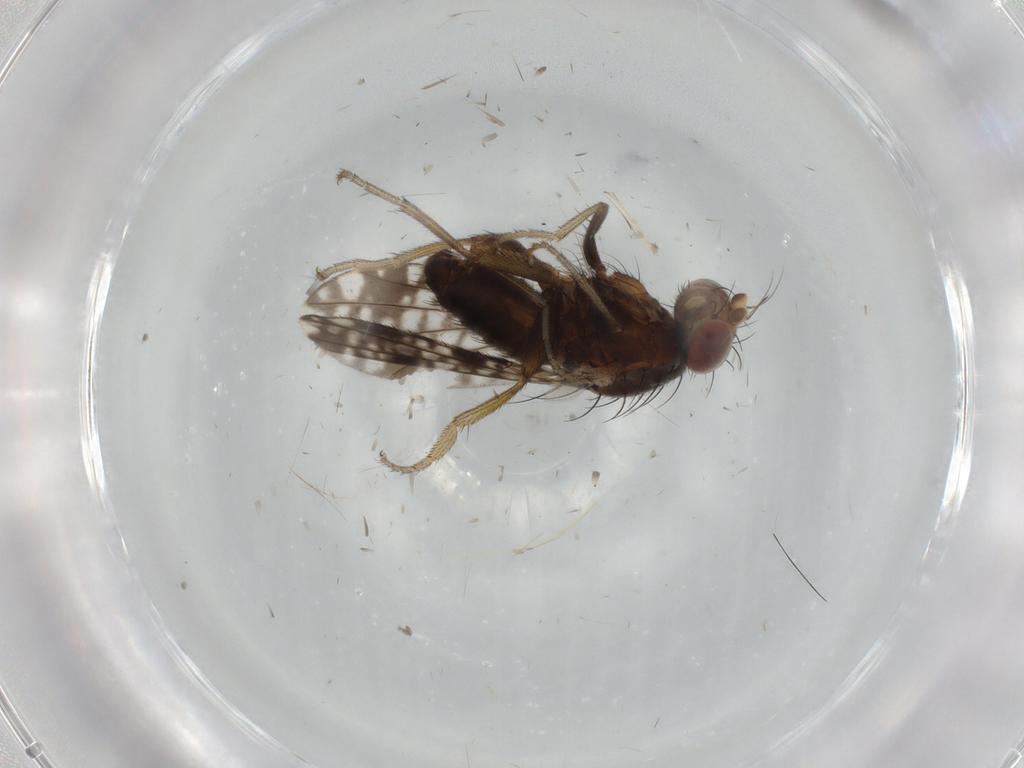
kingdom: Animalia
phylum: Arthropoda
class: Insecta
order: Diptera
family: Tephritidae
